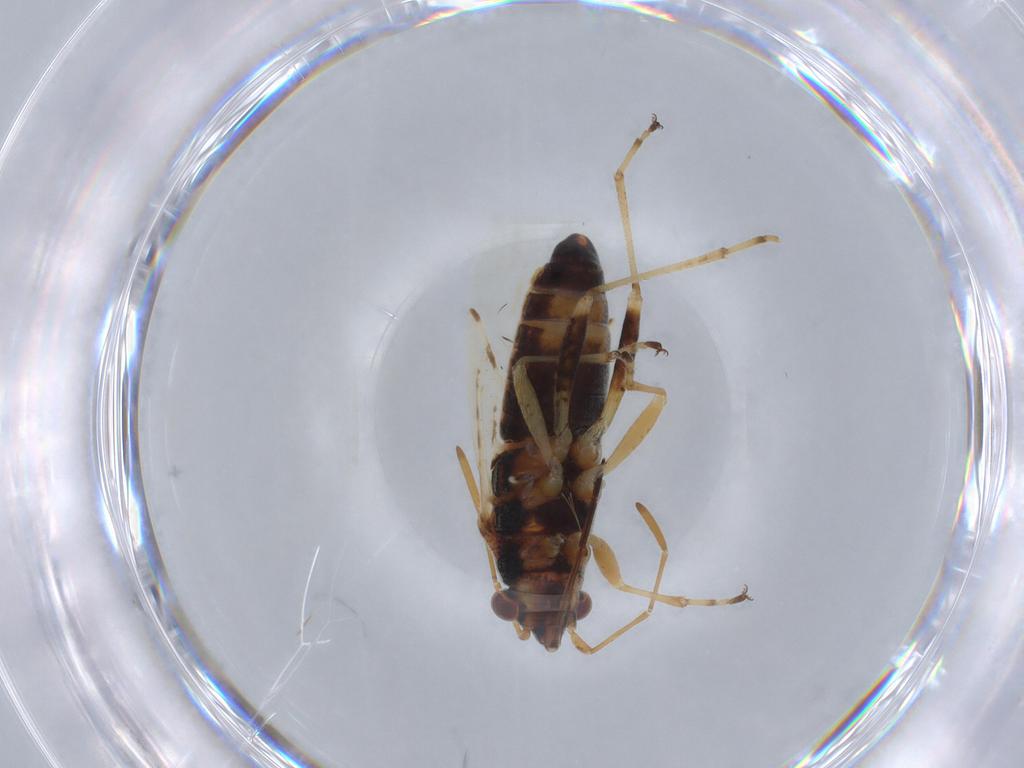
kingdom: Animalia
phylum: Arthropoda
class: Insecta
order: Hemiptera
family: Lygaeidae
